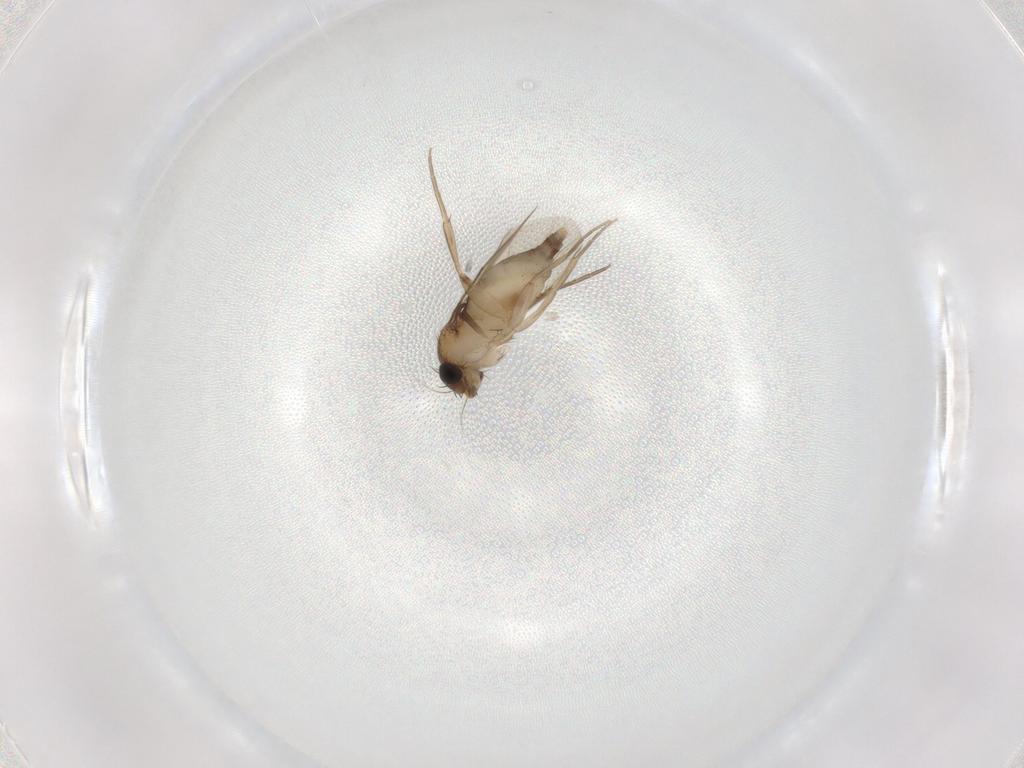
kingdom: Animalia
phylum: Arthropoda
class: Insecta
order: Diptera
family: Phoridae
